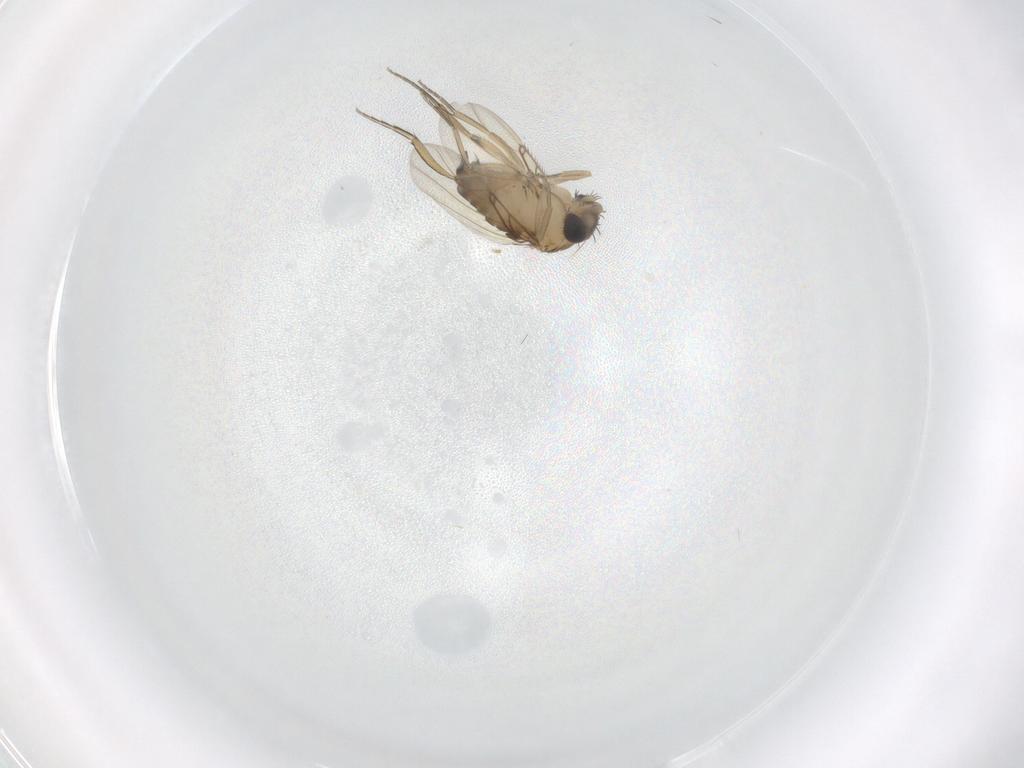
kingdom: Animalia
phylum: Arthropoda
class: Insecta
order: Diptera
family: Phoridae
